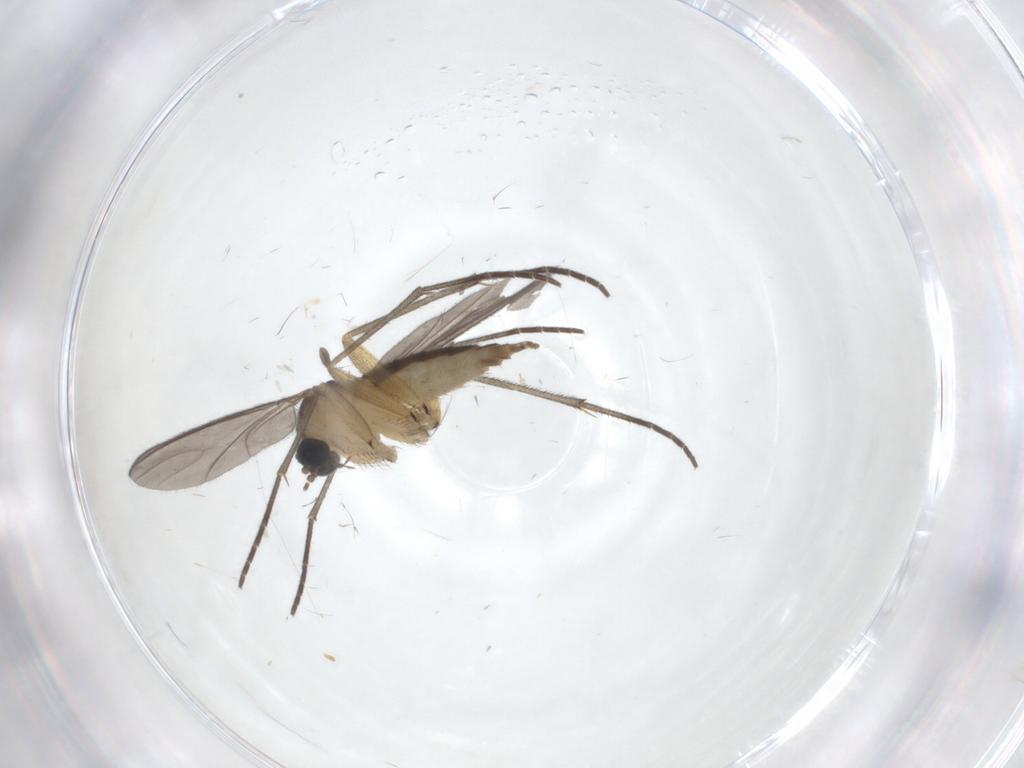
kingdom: Animalia
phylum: Arthropoda
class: Insecta
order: Diptera
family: Sciaridae
